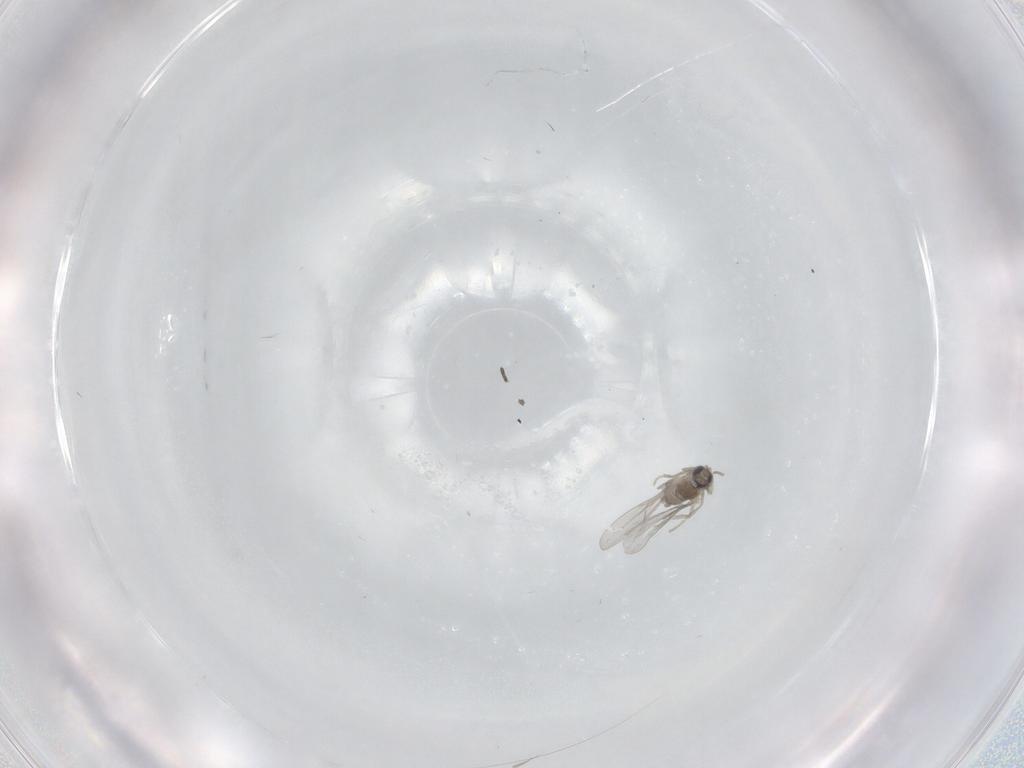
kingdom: Animalia
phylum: Arthropoda
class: Insecta
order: Diptera
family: Cecidomyiidae
